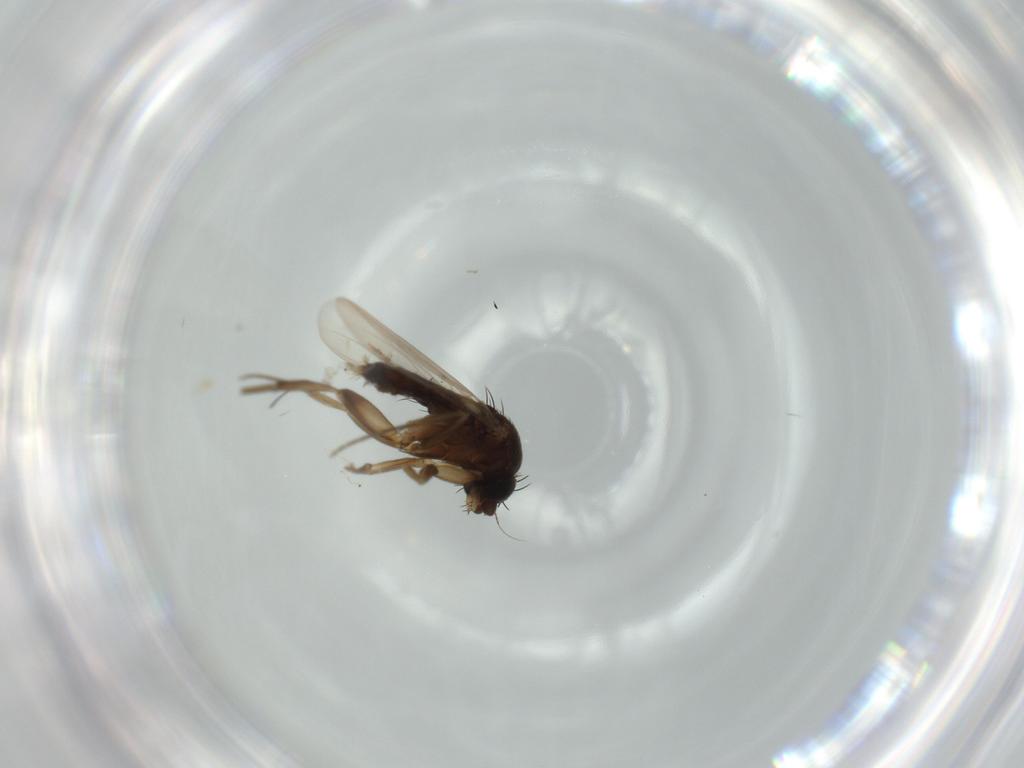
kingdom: Animalia
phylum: Arthropoda
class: Insecta
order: Diptera
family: Phoridae
